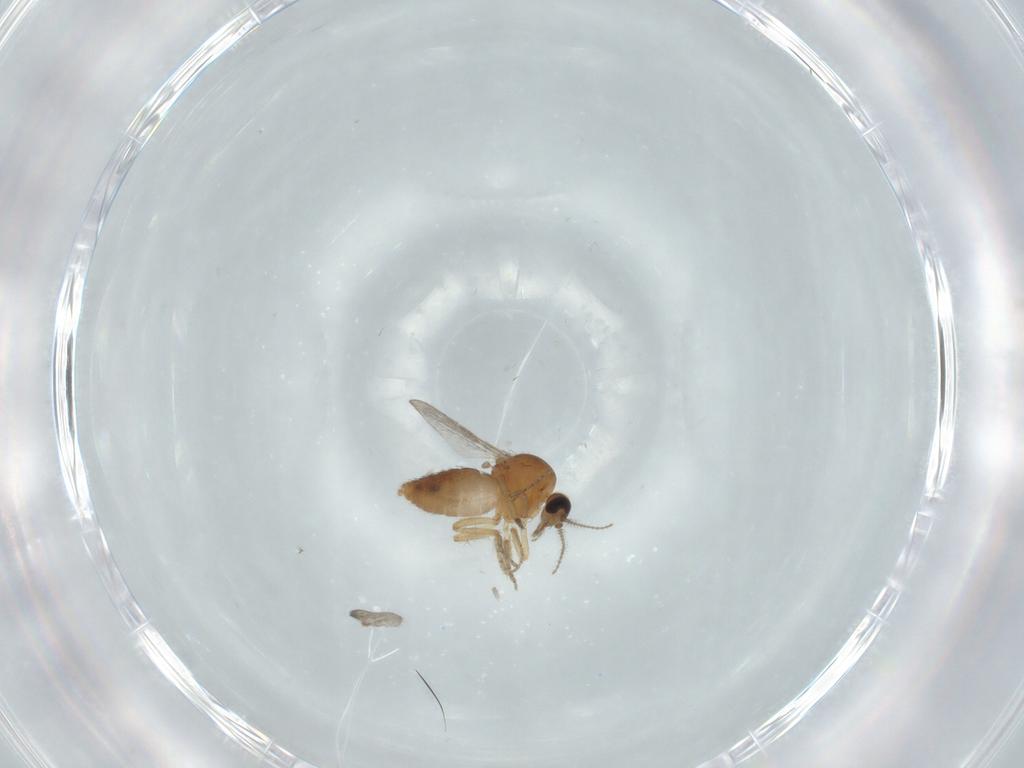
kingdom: Animalia
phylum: Arthropoda
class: Insecta
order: Diptera
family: Ceratopogonidae
